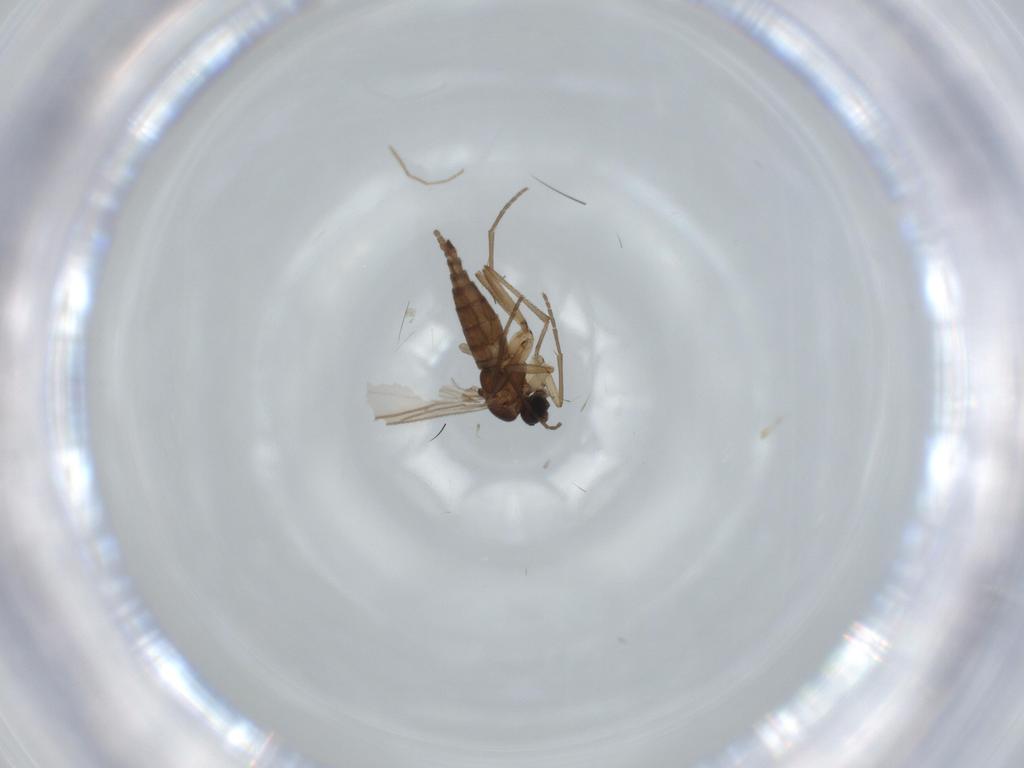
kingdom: Animalia
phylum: Arthropoda
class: Insecta
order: Diptera
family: Sciaridae
